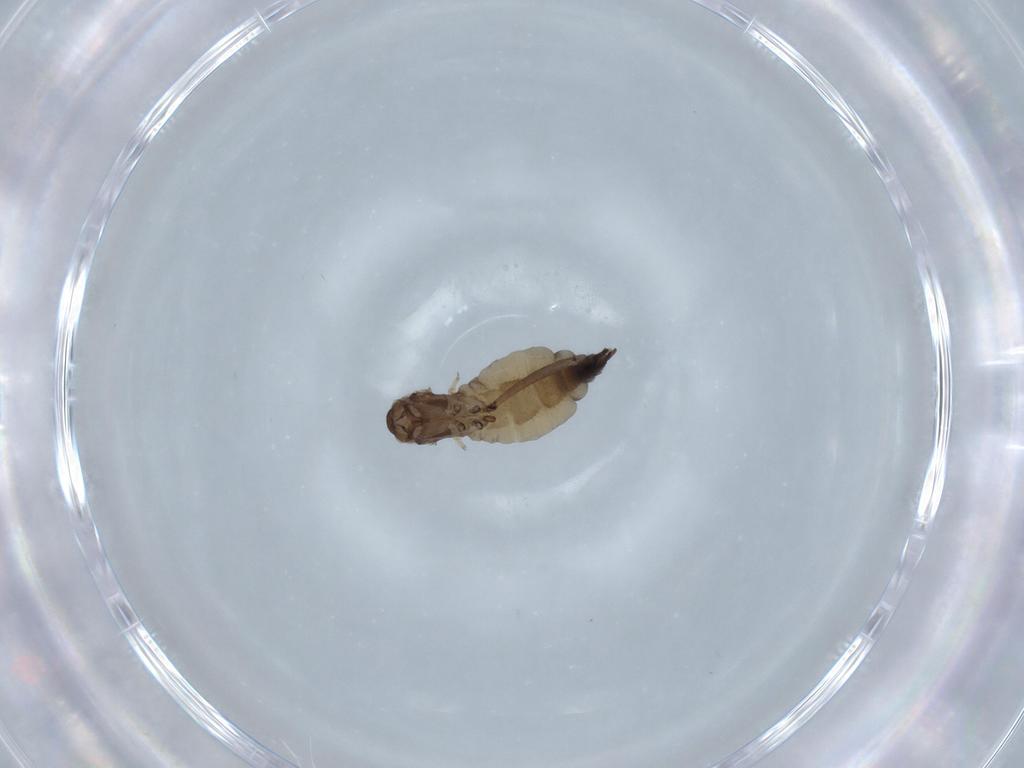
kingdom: Animalia
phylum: Arthropoda
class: Insecta
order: Diptera
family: Sciaridae
